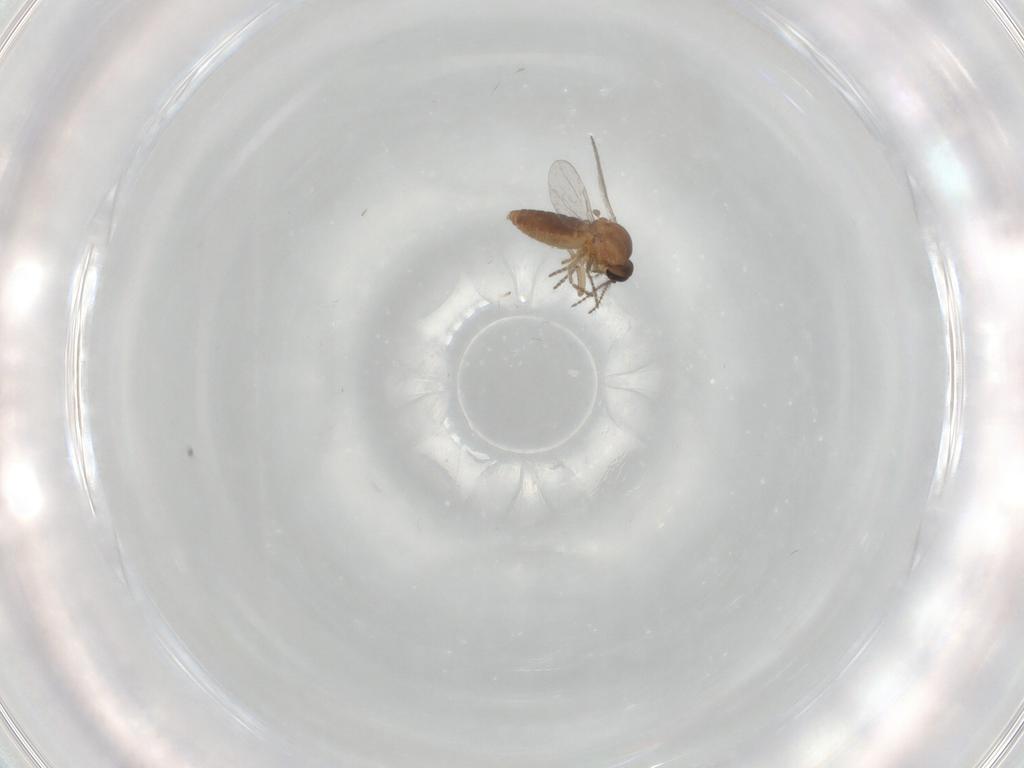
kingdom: Animalia
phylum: Arthropoda
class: Insecta
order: Diptera
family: Ceratopogonidae
